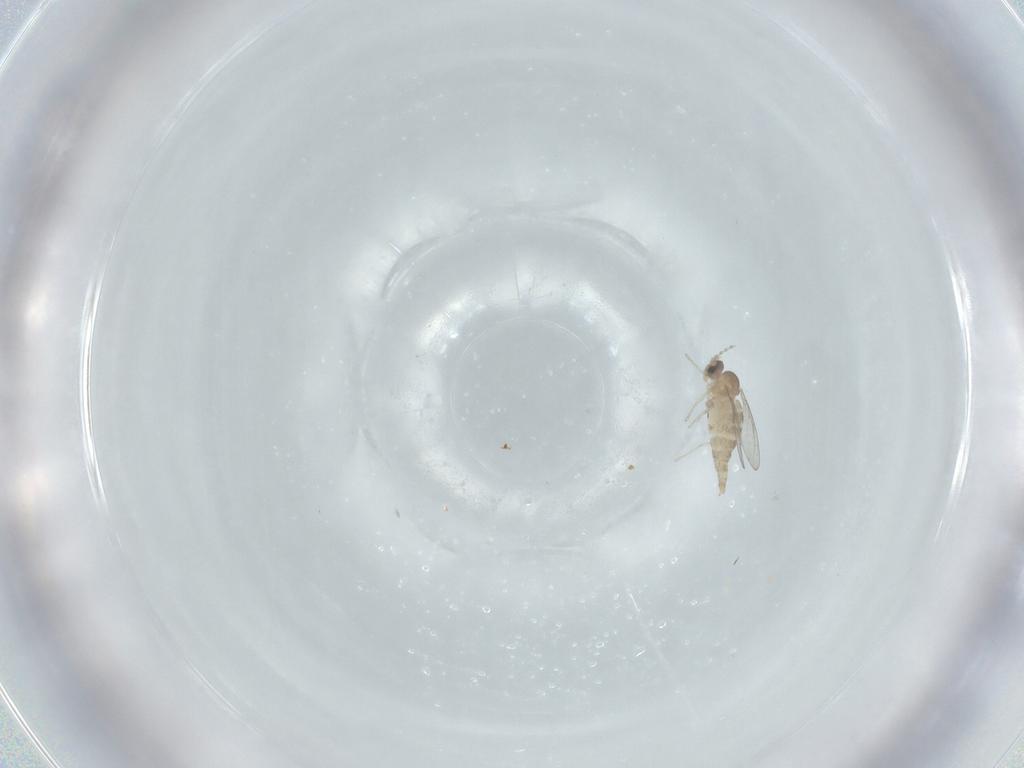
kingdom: Animalia
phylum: Arthropoda
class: Insecta
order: Diptera
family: Cecidomyiidae
